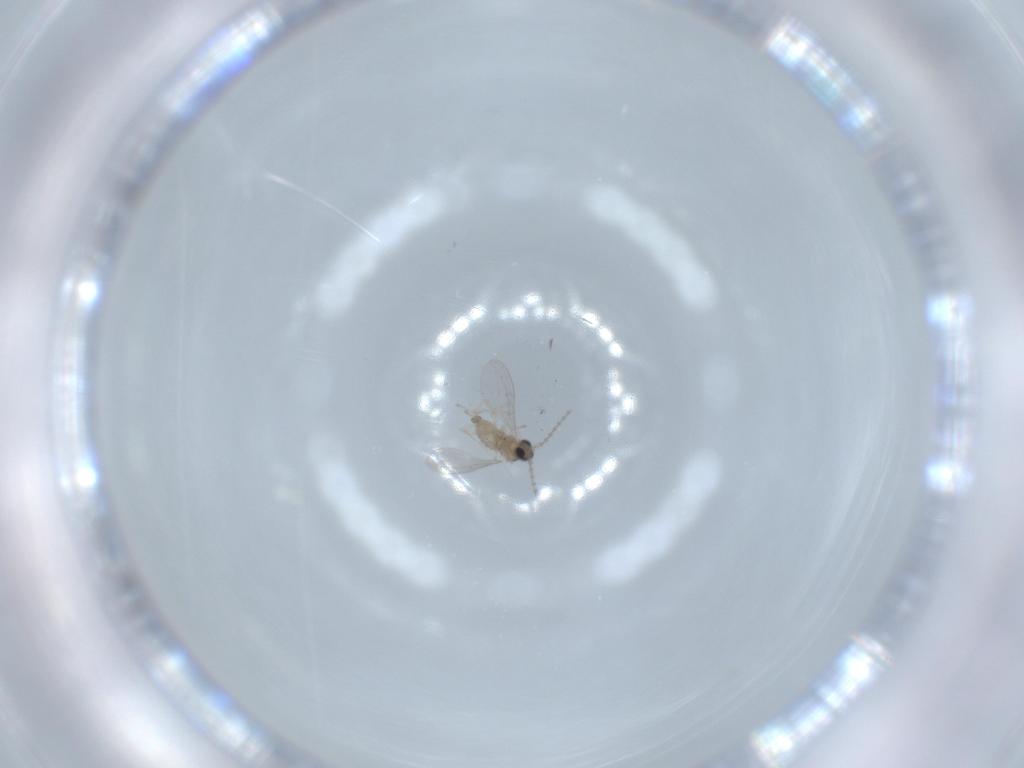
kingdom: Animalia
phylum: Arthropoda
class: Insecta
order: Diptera
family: Cecidomyiidae
